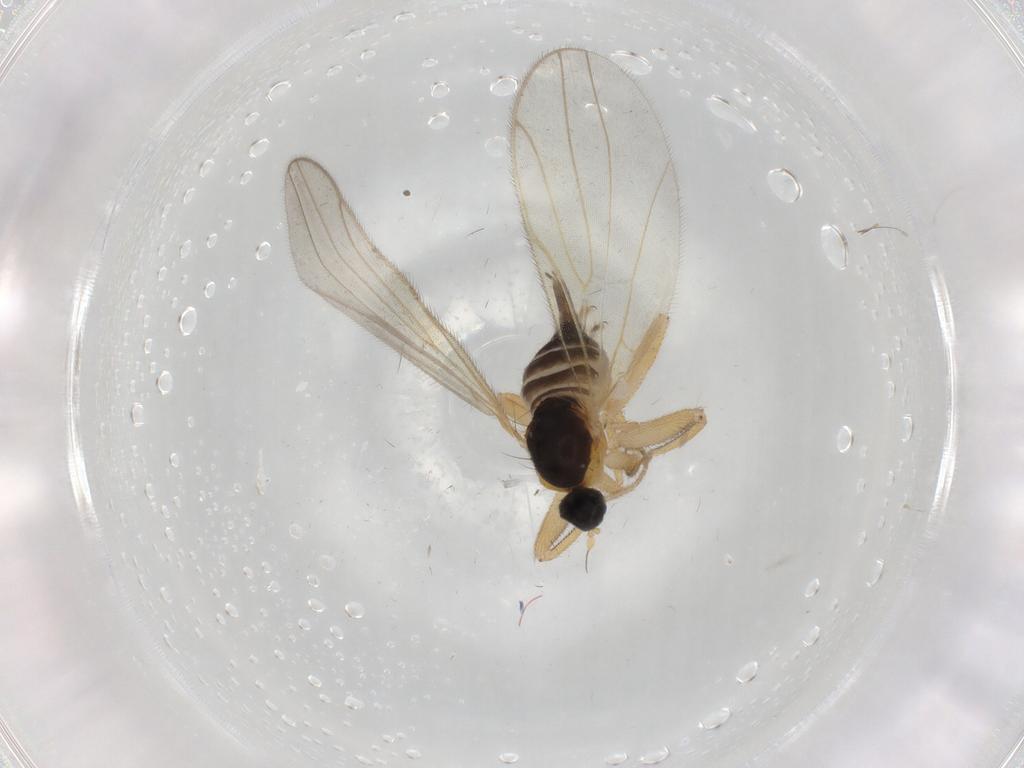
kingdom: Animalia
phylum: Arthropoda
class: Insecta
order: Diptera
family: Hybotidae
